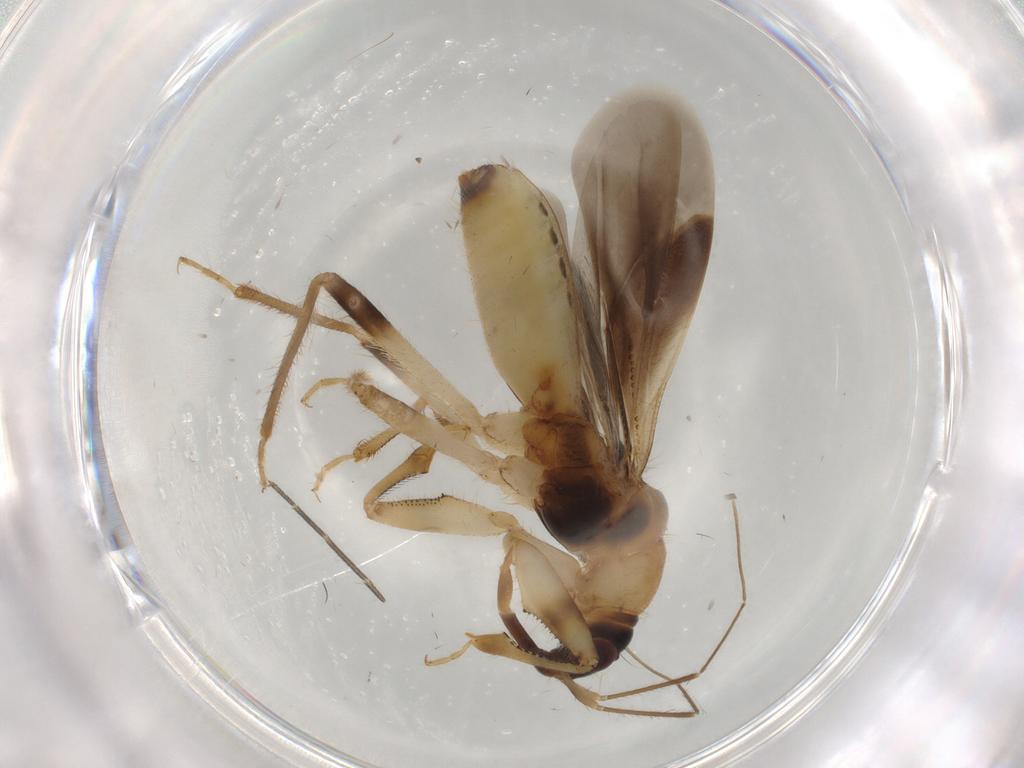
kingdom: Animalia
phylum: Arthropoda
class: Insecta
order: Hemiptera
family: Nabidae
